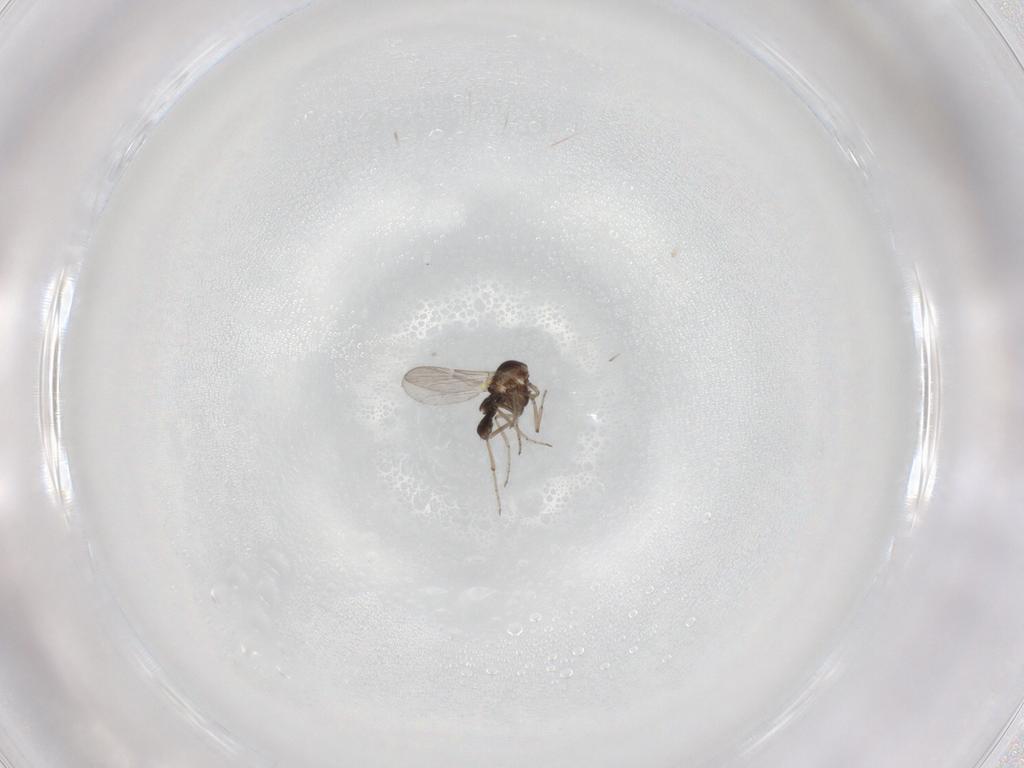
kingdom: Animalia
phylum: Arthropoda
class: Insecta
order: Diptera
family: Ceratopogonidae
